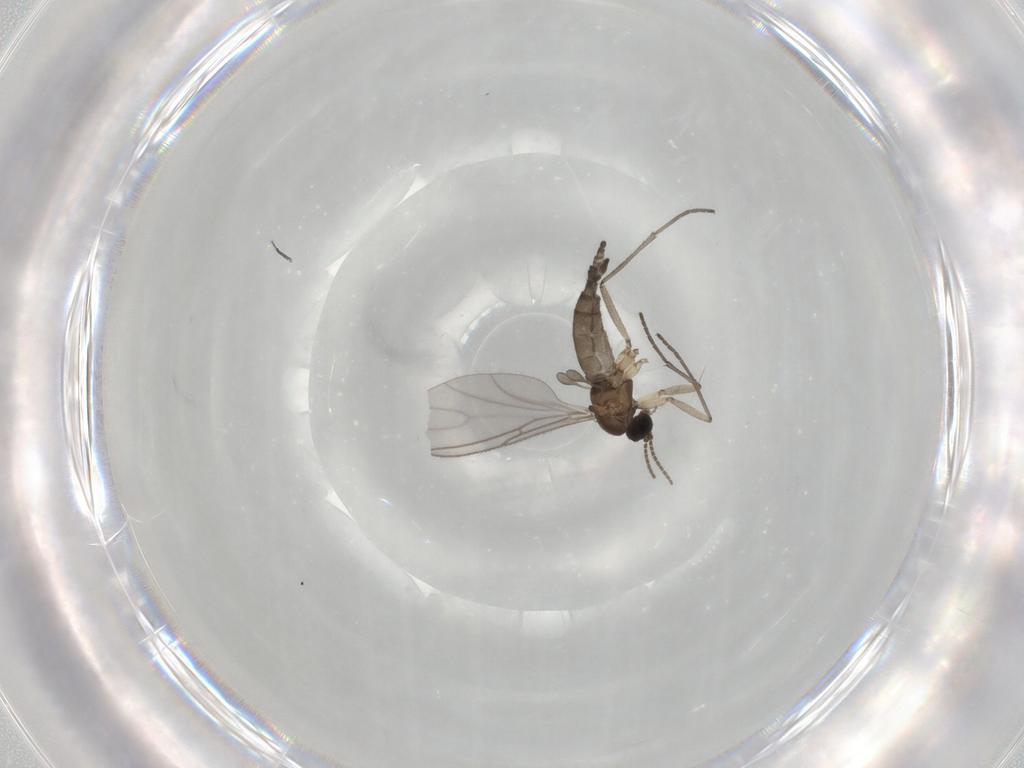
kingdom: Animalia
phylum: Arthropoda
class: Insecta
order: Diptera
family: Sciaridae
